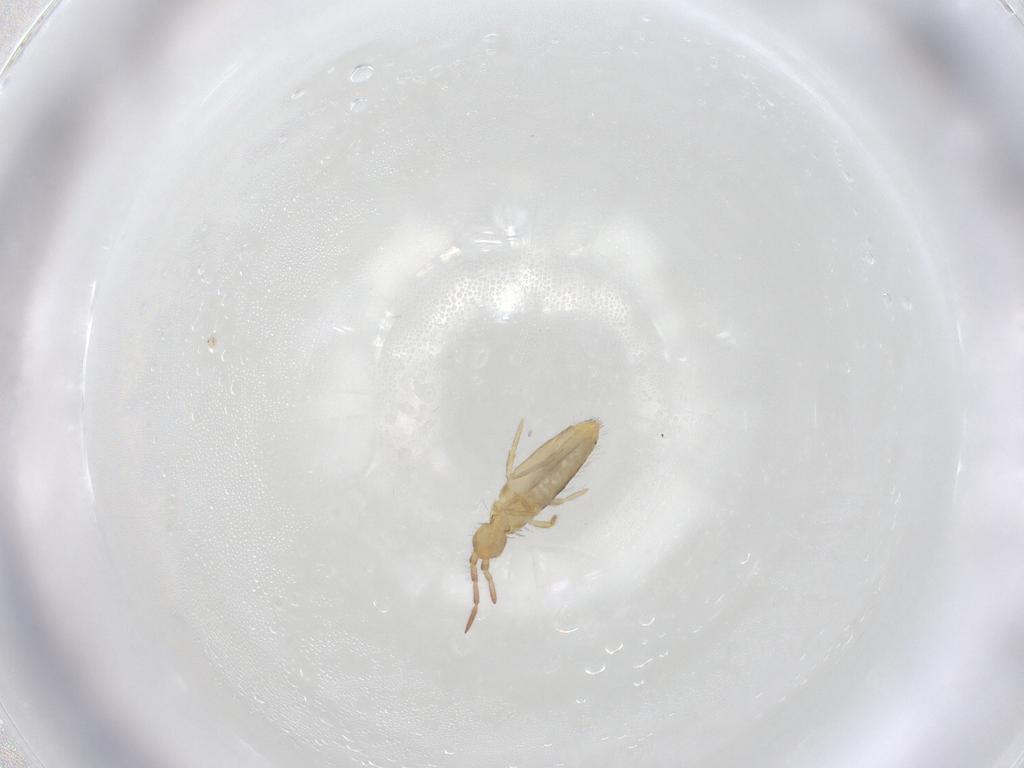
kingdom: Animalia
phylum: Arthropoda
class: Collembola
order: Entomobryomorpha
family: Entomobryidae
